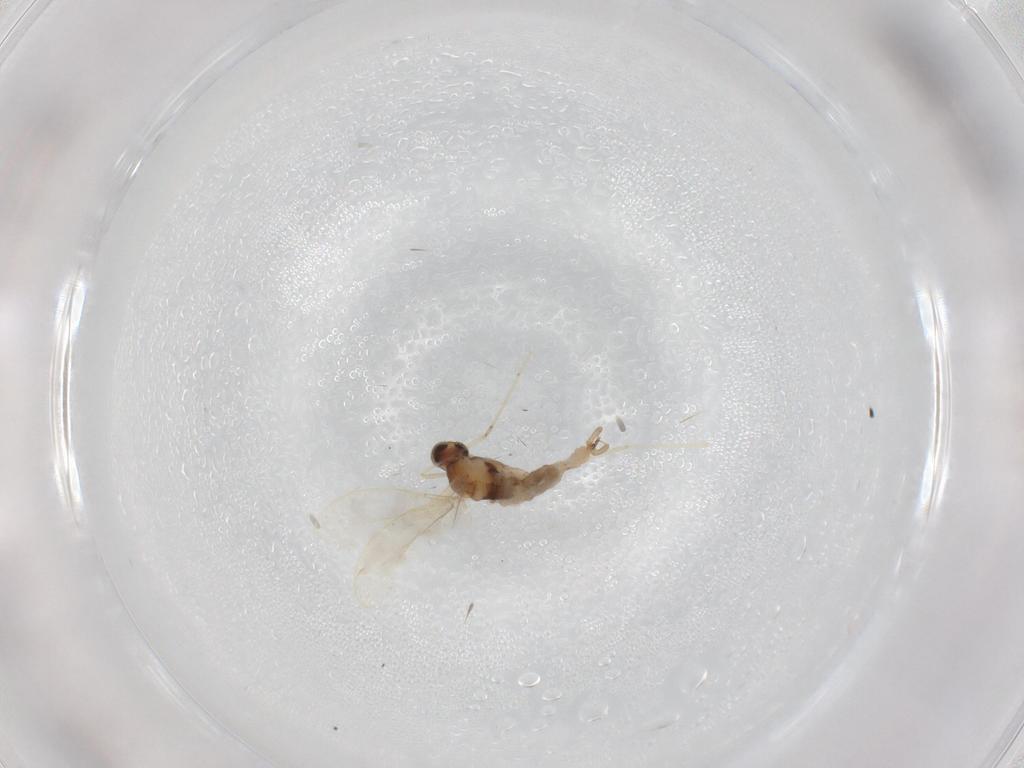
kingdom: Animalia
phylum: Arthropoda
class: Insecta
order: Diptera
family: Cecidomyiidae
